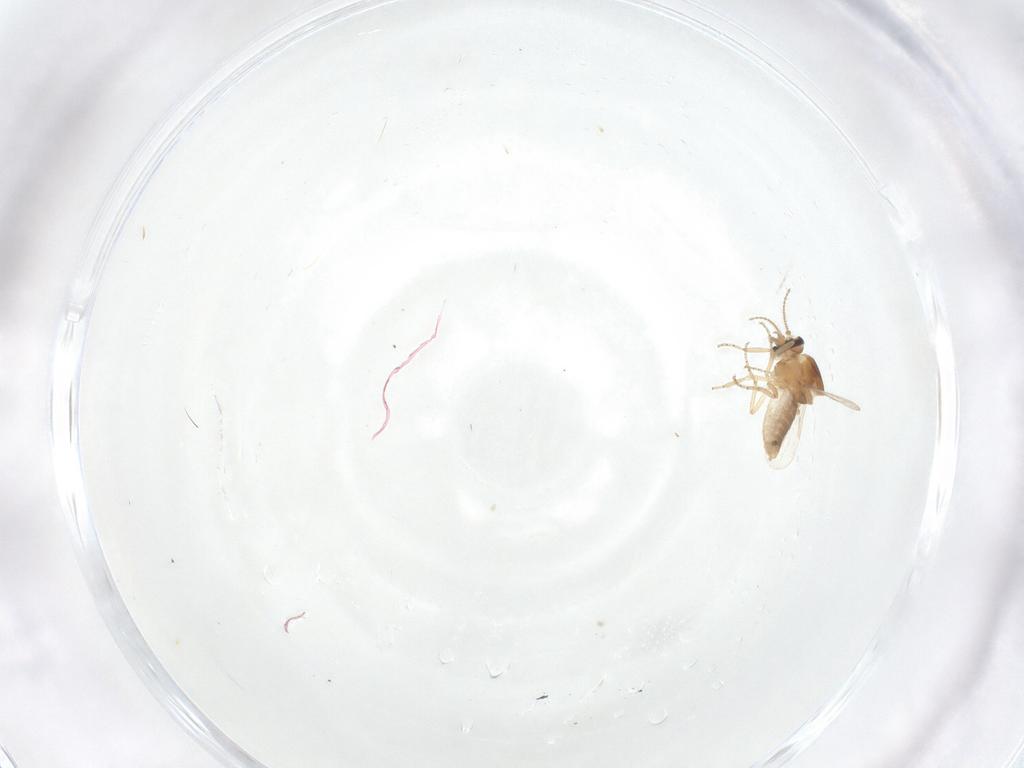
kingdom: Animalia
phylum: Arthropoda
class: Insecta
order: Diptera
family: Ceratopogonidae
